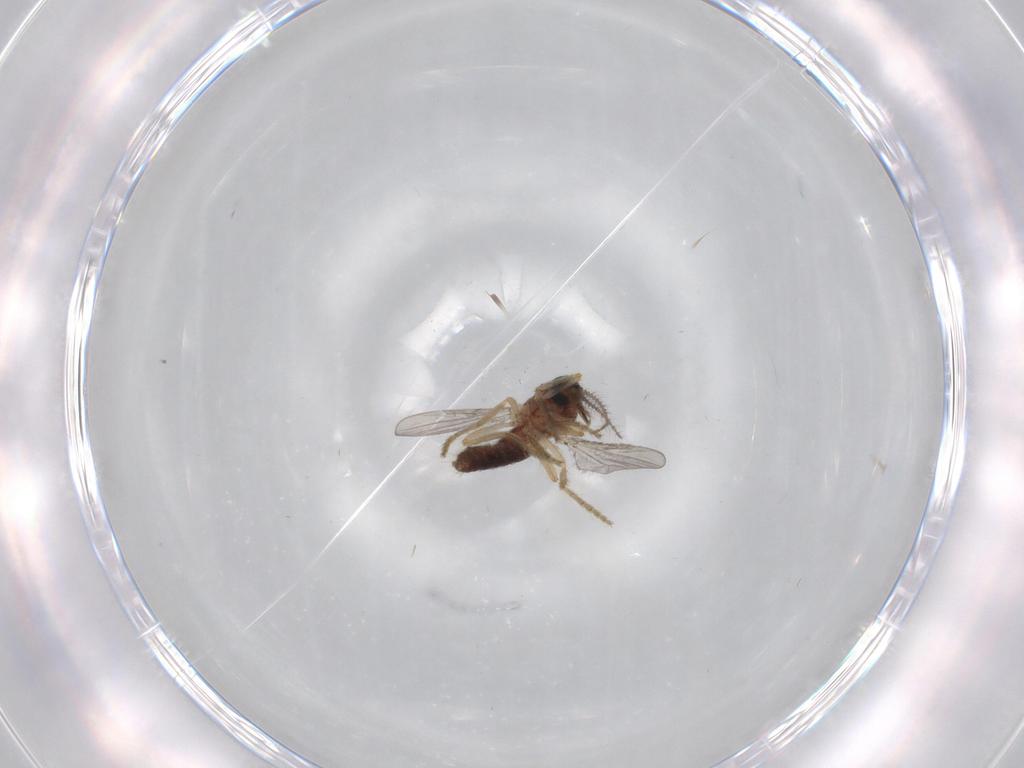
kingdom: Animalia
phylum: Arthropoda
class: Insecta
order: Diptera
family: Ceratopogonidae
